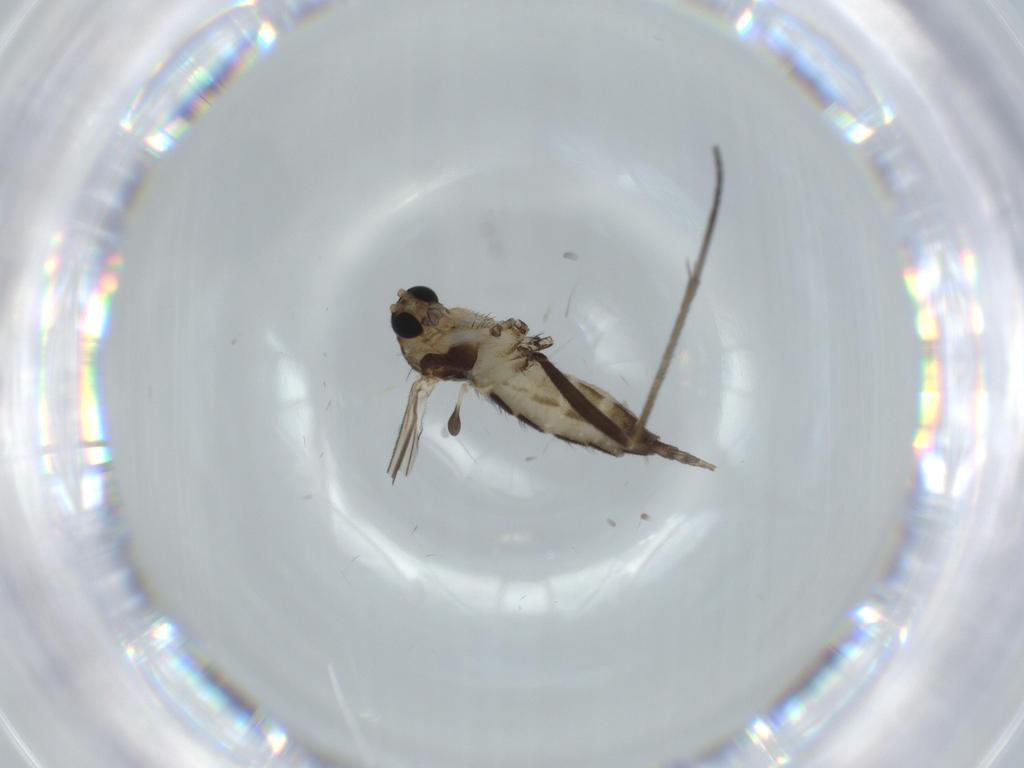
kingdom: Animalia
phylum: Arthropoda
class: Insecta
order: Diptera
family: Sciaridae
